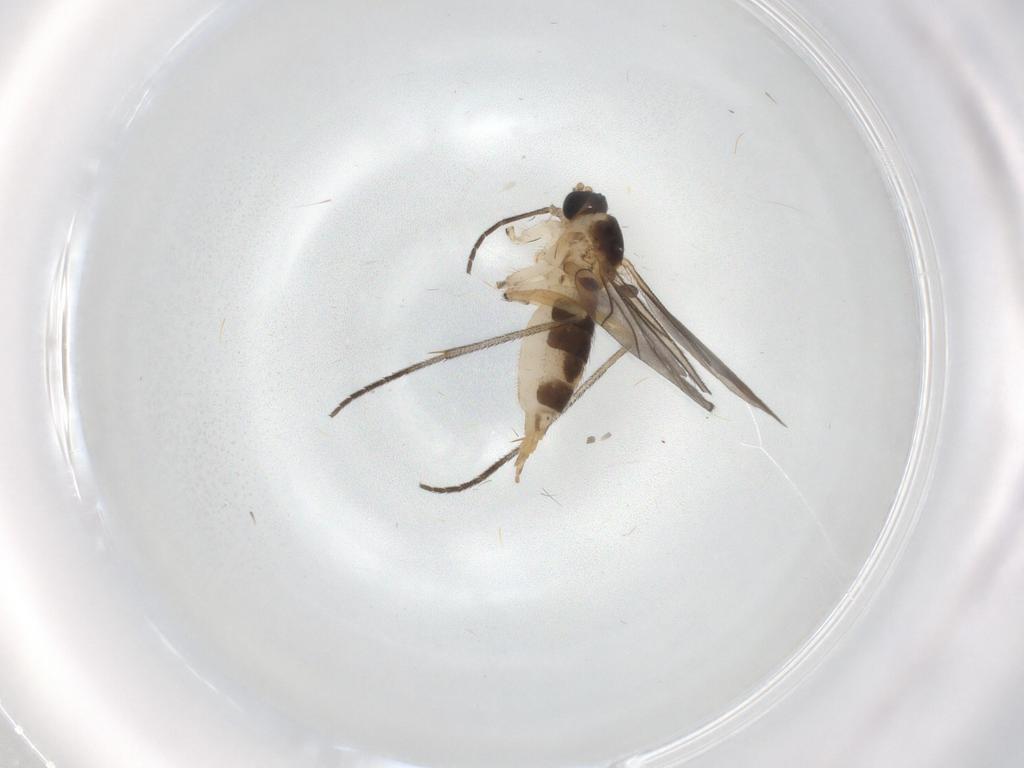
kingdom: Animalia
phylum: Arthropoda
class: Insecta
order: Diptera
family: Sciaridae
